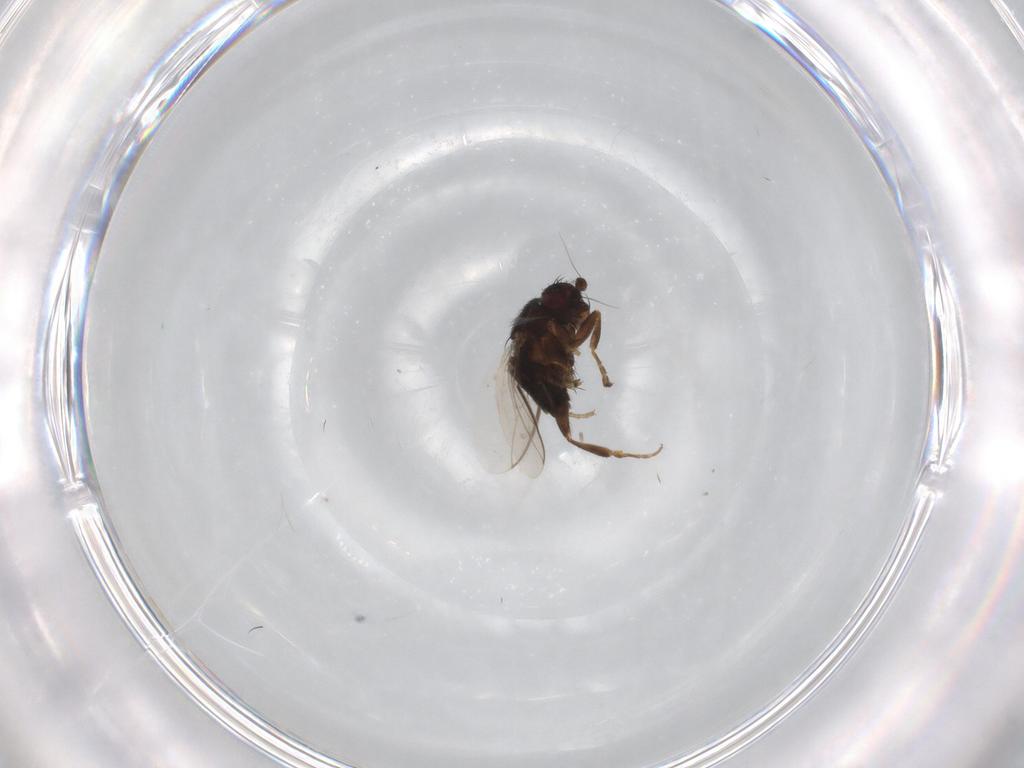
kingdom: Animalia
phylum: Arthropoda
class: Insecta
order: Diptera
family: Sphaeroceridae
